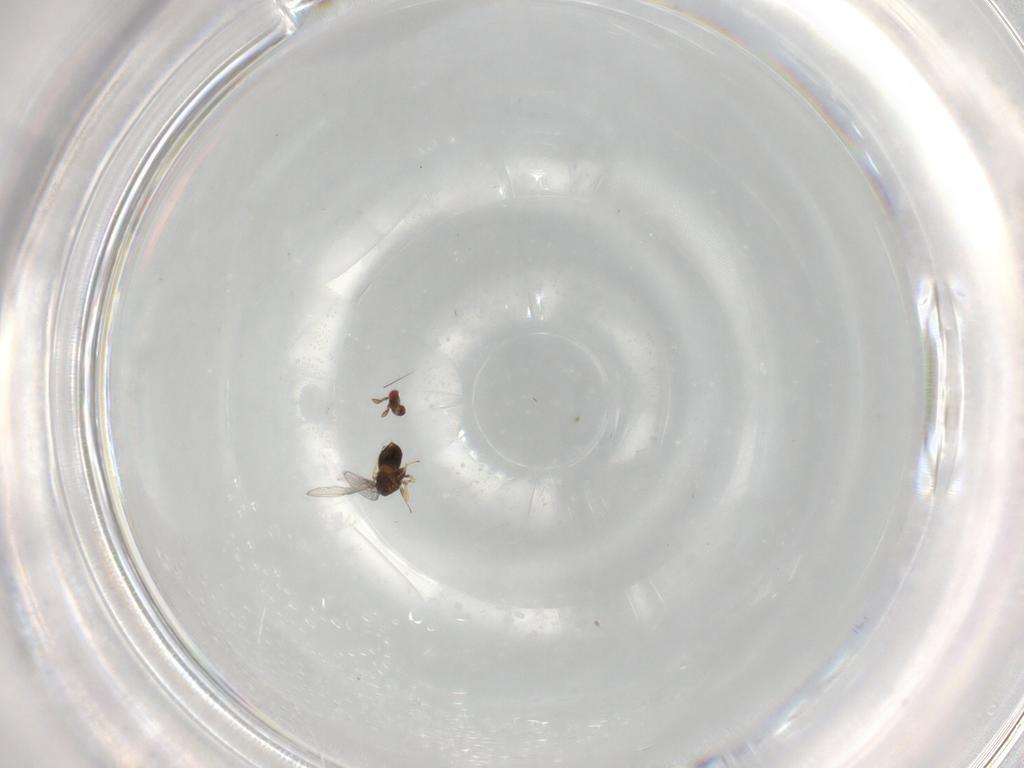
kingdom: Animalia
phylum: Arthropoda
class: Insecta
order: Hymenoptera
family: Trichogrammatidae
